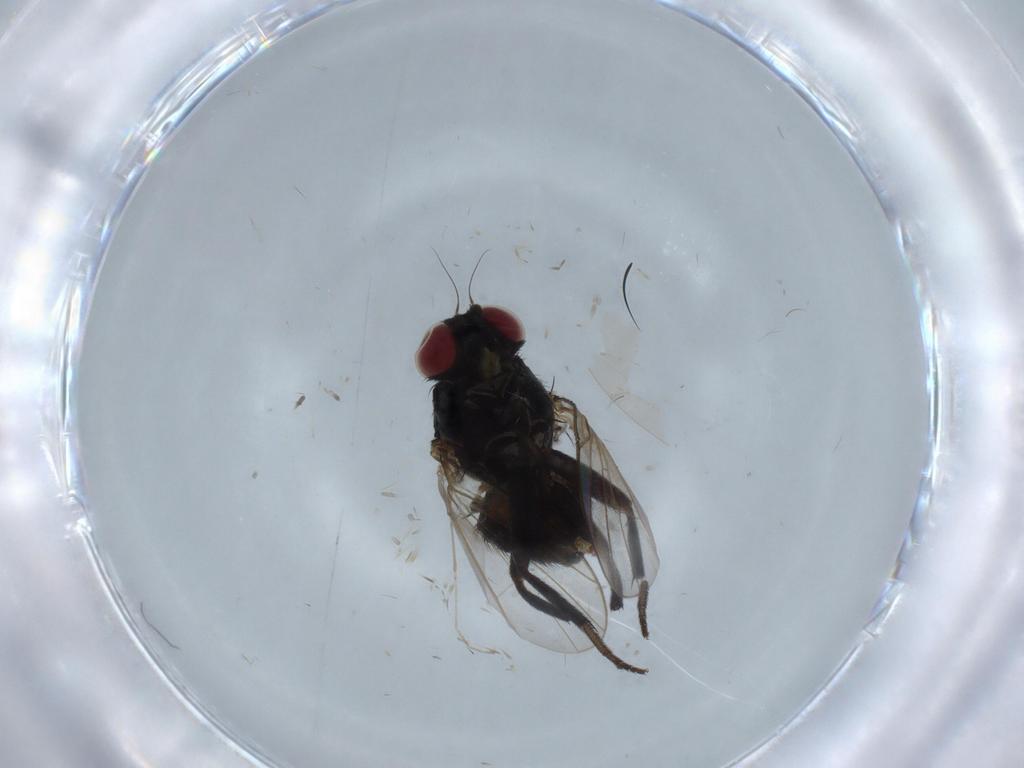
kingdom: Animalia
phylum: Arthropoda
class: Insecta
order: Diptera
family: Agromyzidae
